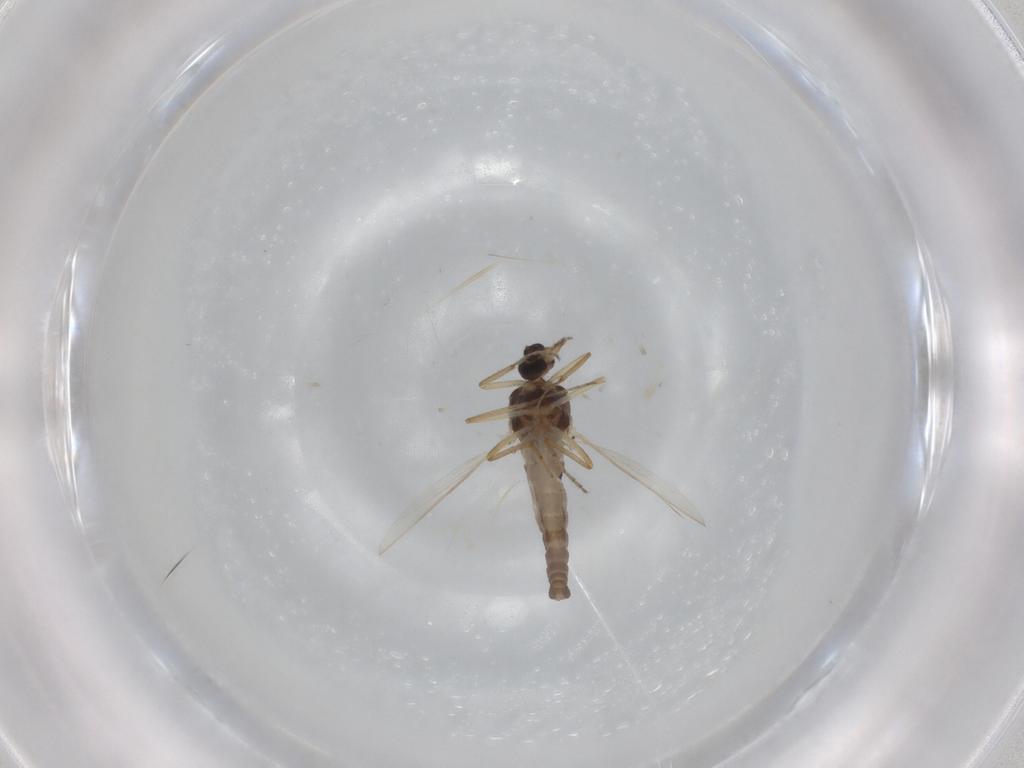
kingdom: Animalia
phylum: Arthropoda
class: Insecta
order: Diptera
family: Ceratopogonidae
